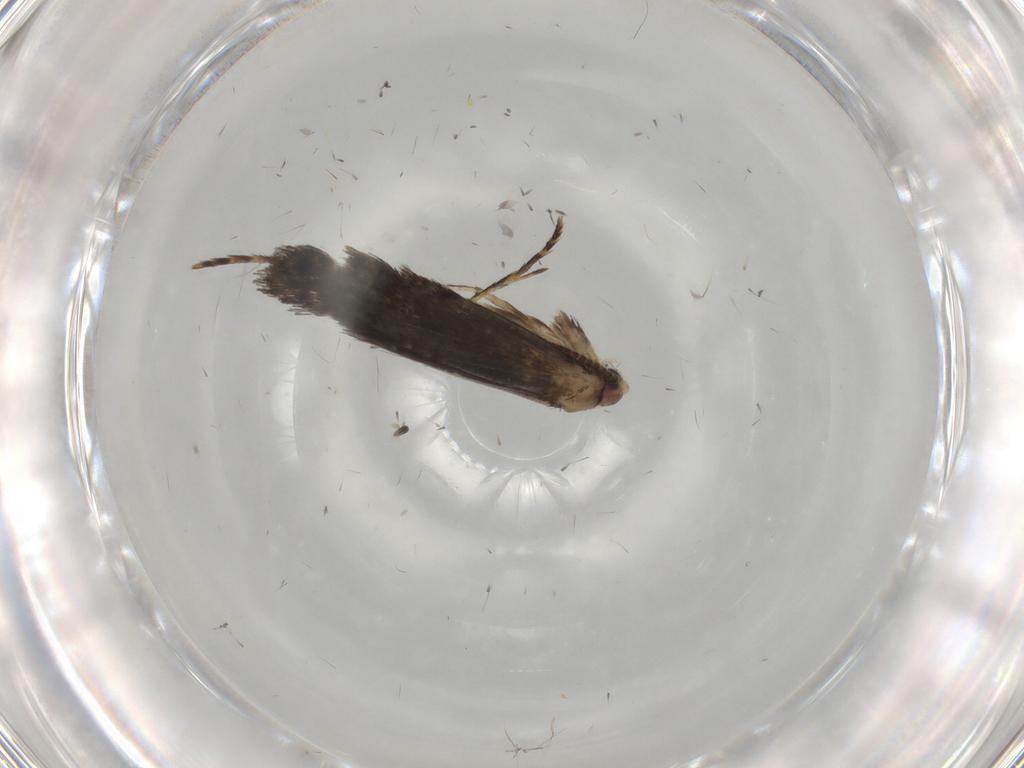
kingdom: Animalia
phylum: Arthropoda
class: Insecta
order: Lepidoptera
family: Tineidae
